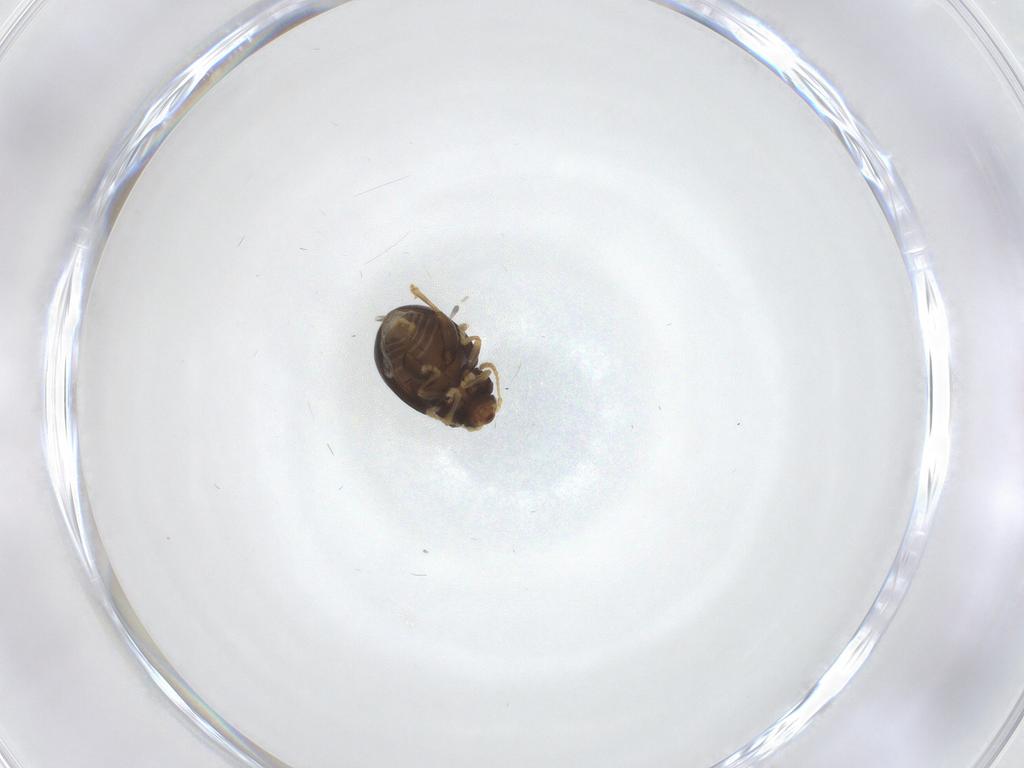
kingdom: Animalia
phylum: Arthropoda
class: Insecta
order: Coleoptera
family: Chrysomelidae
